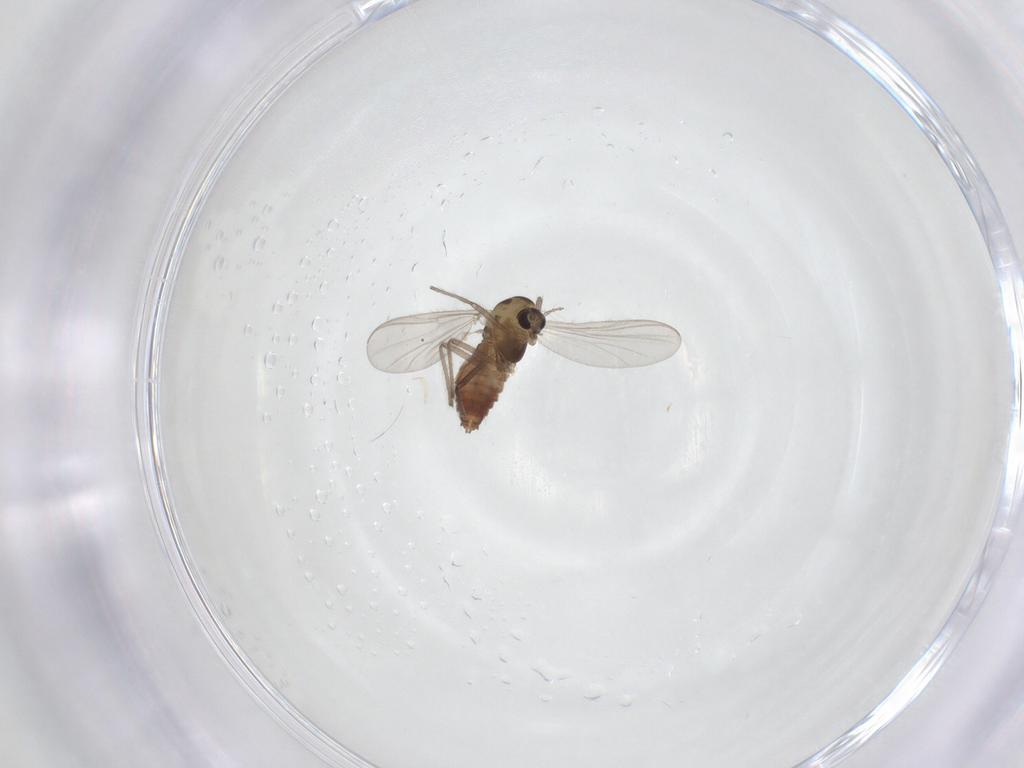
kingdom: Animalia
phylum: Arthropoda
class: Insecta
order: Diptera
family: Chironomidae
